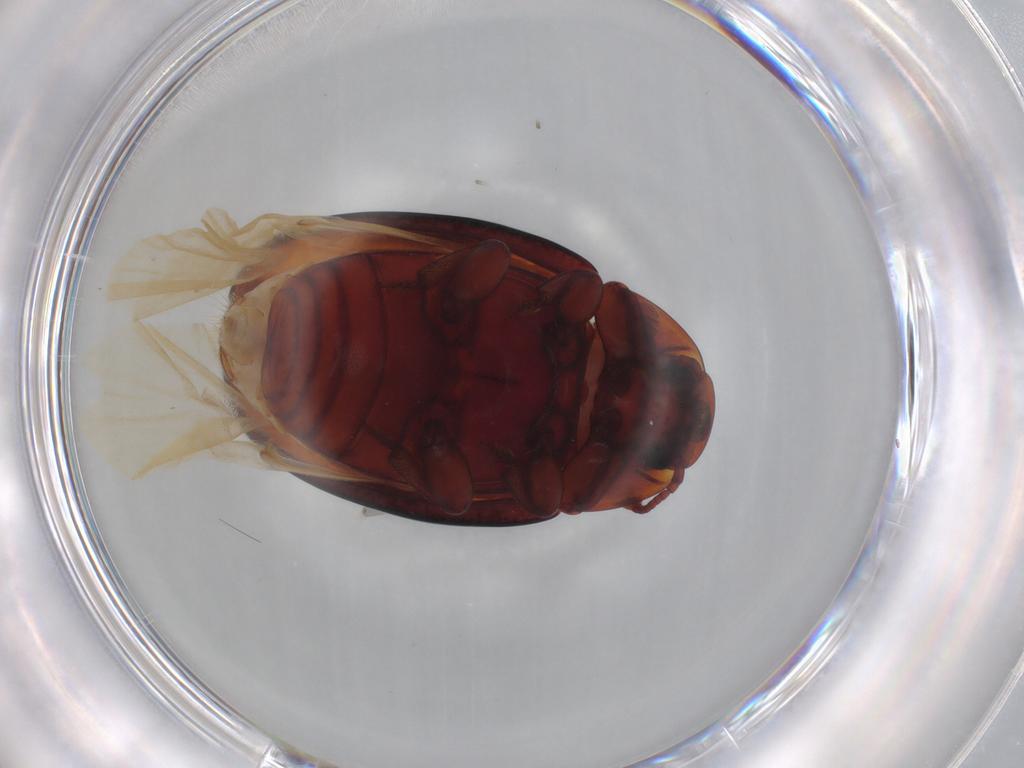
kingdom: Animalia
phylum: Arthropoda
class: Insecta
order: Coleoptera
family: Zopheridae
